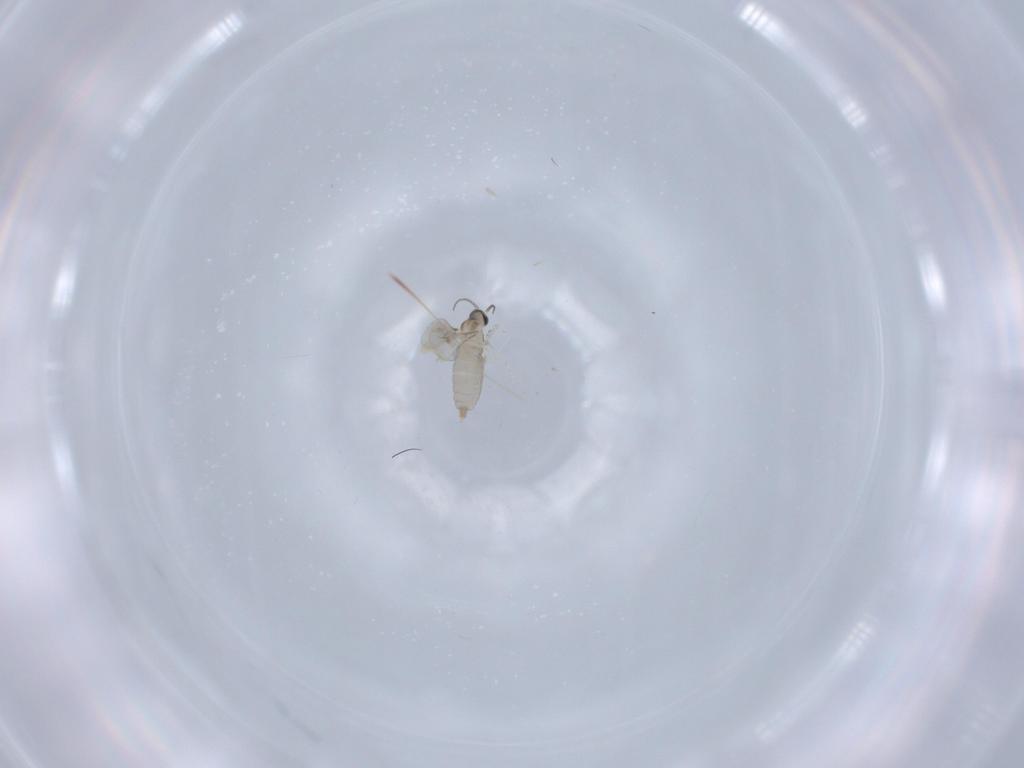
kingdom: Animalia
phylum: Arthropoda
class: Insecta
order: Diptera
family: Cecidomyiidae
